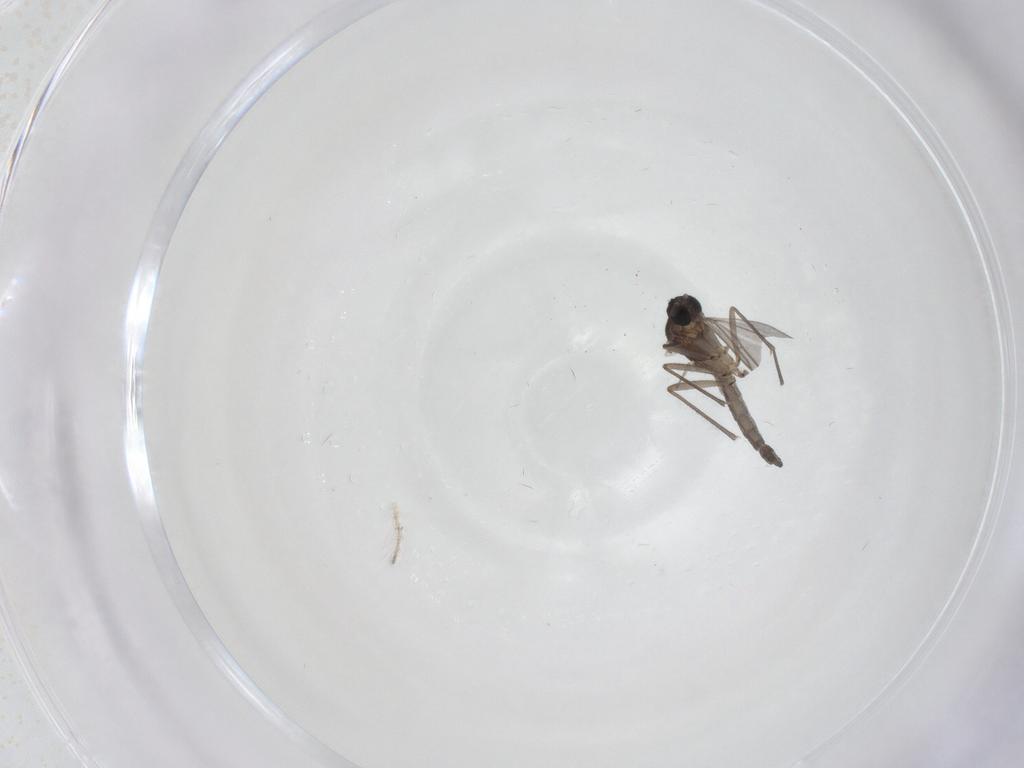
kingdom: Animalia
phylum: Arthropoda
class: Insecta
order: Diptera
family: Sciaridae
